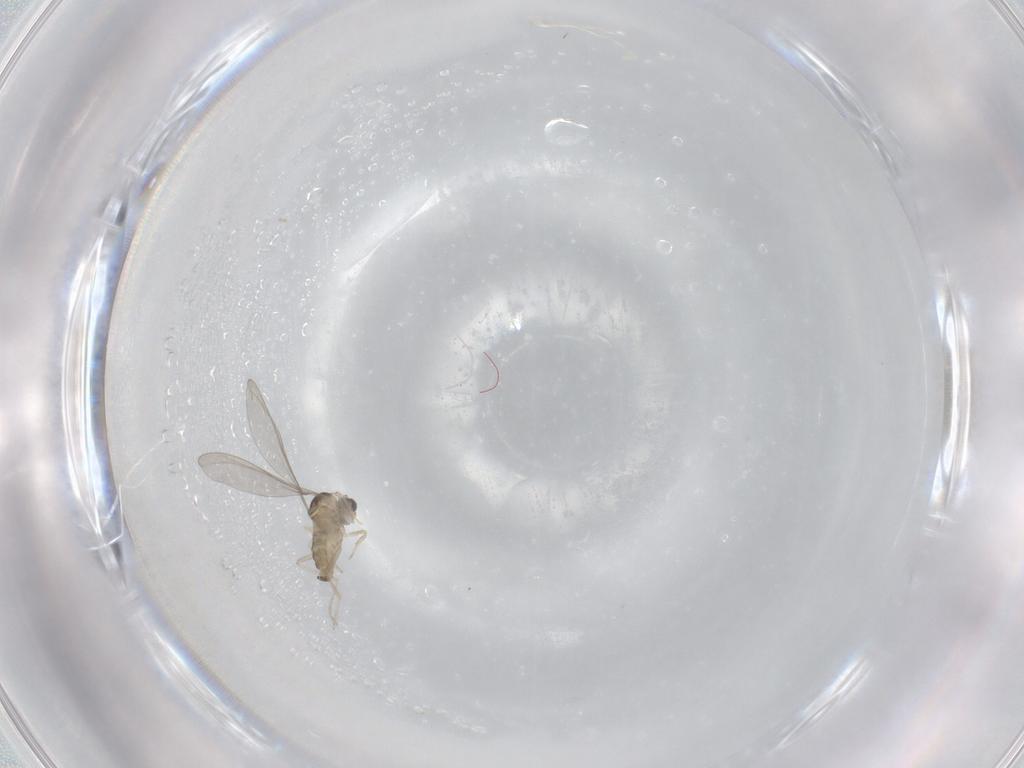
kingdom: Animalia
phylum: Arthropoda
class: Insecta
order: Diptera
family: Cecidomyiidae
